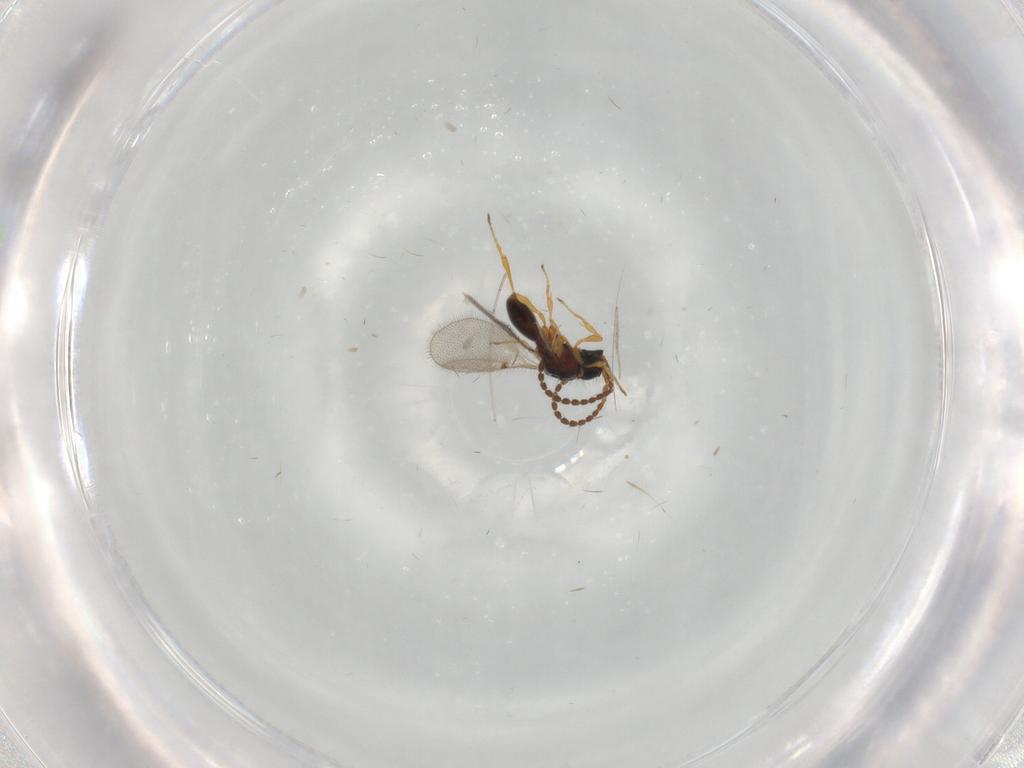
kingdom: Animalia
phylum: Arthropoda
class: Insecta
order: Hymenoptera
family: Diapriidae
